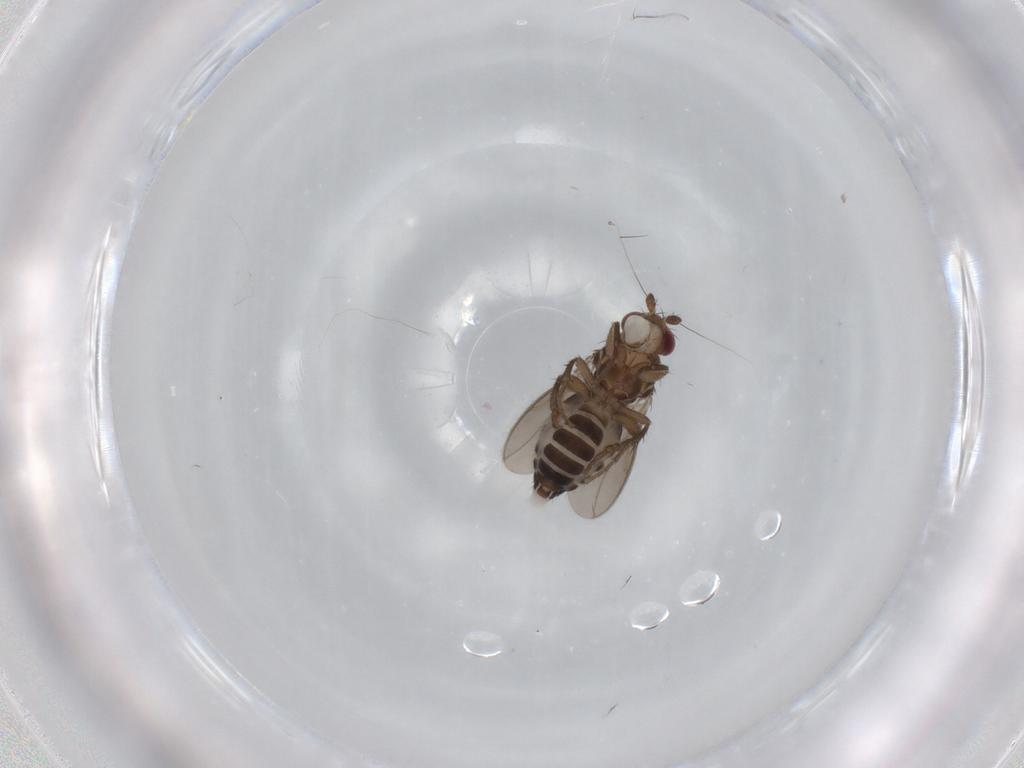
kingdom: Animalia
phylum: Arthropoda
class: Insecta
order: Diptera
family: Sphaeroceridae
